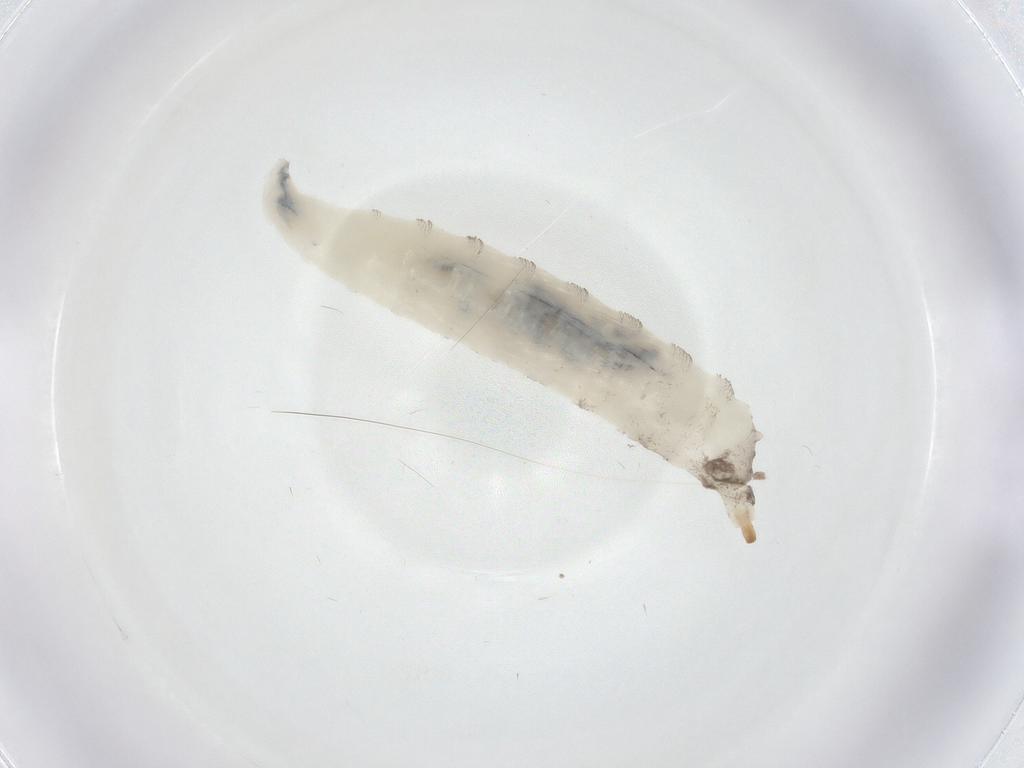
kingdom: Animalia
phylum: Arthropoda
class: Insecta
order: Diptera
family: Drosophilidae
